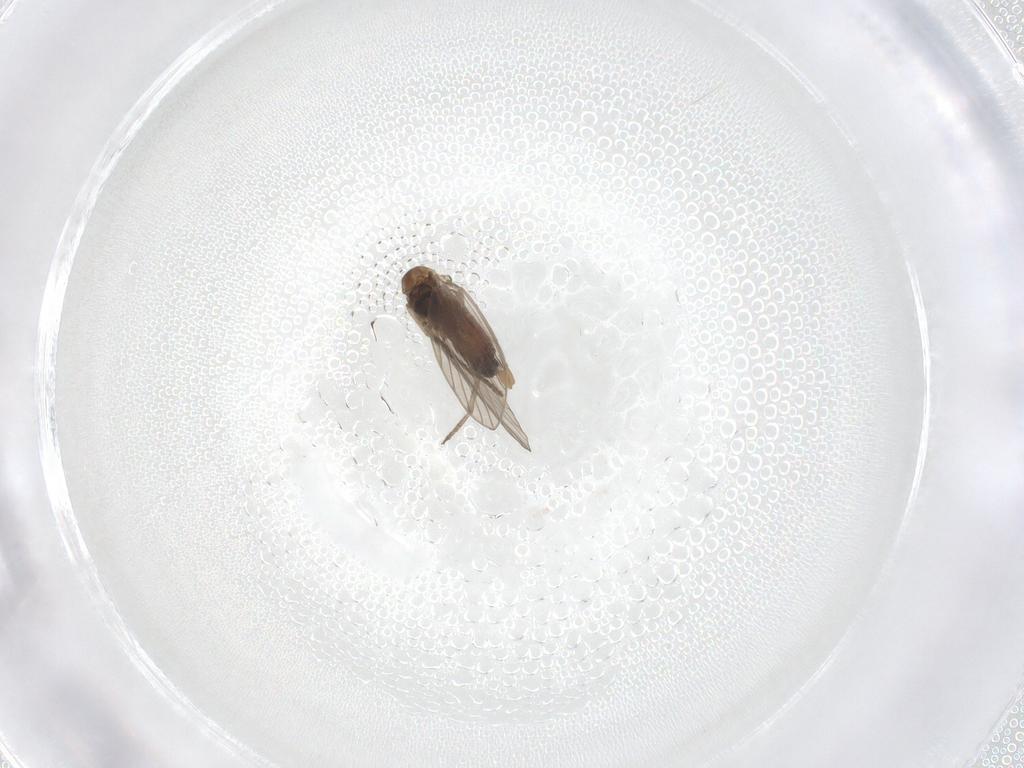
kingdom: Animalia
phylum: Arthropoda
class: Insecta
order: Diptera
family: Psychodidae
